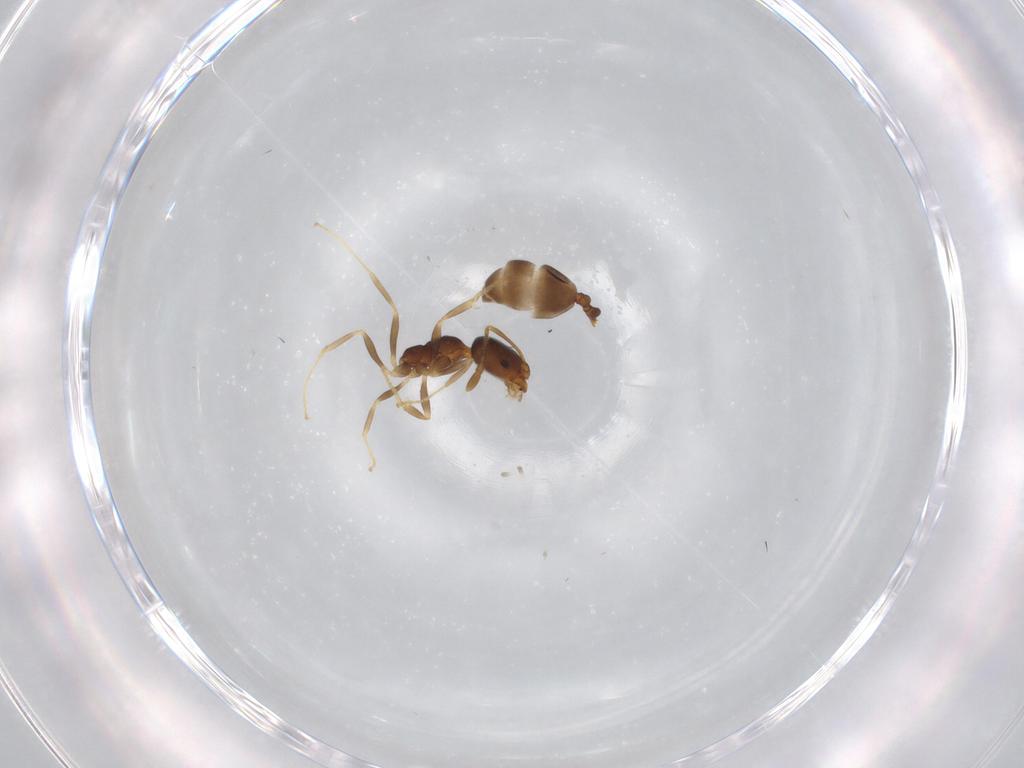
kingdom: Animalia
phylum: Arthropoda
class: Insecta
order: Hymenoptera
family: Formicidae
